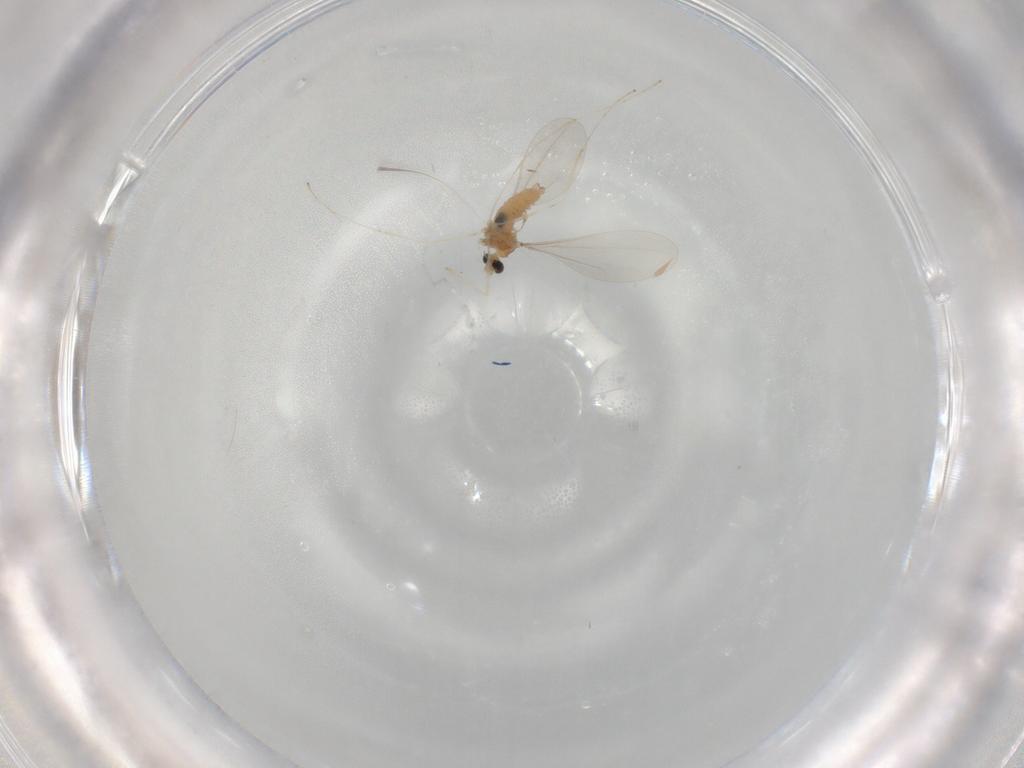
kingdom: Animalia
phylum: Arthropoda
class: Insecta
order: Diptera
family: Cecidomyiidae
